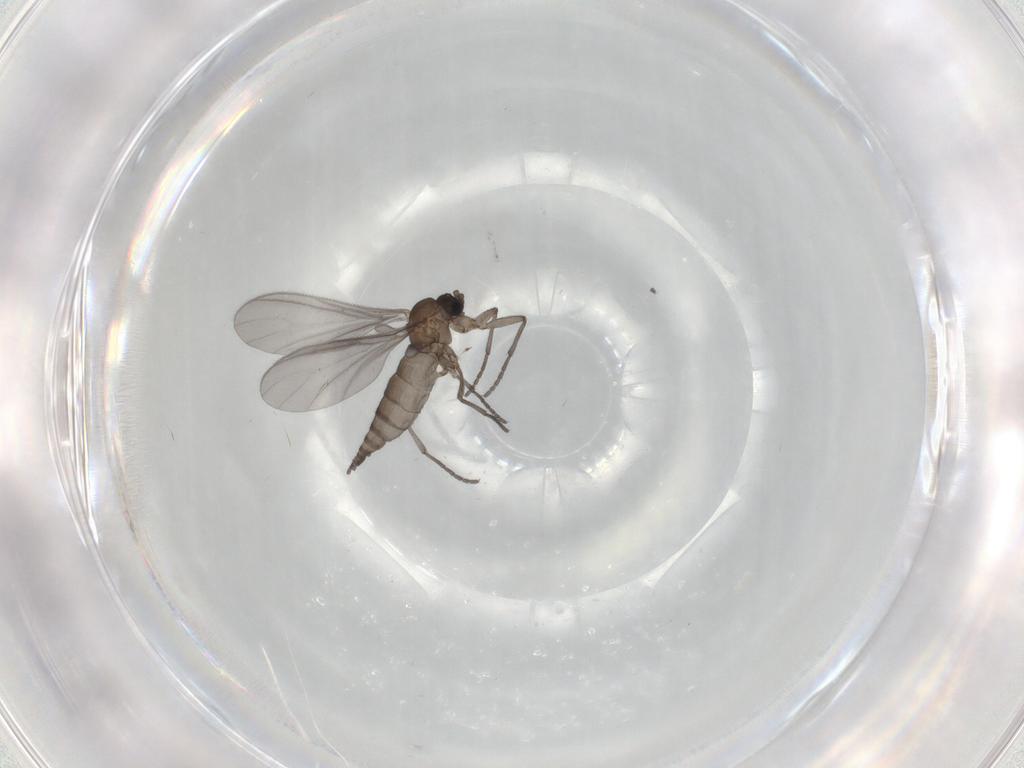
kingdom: Animalia
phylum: Arthropoda
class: Insecta
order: Diptera
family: Sciaridae
